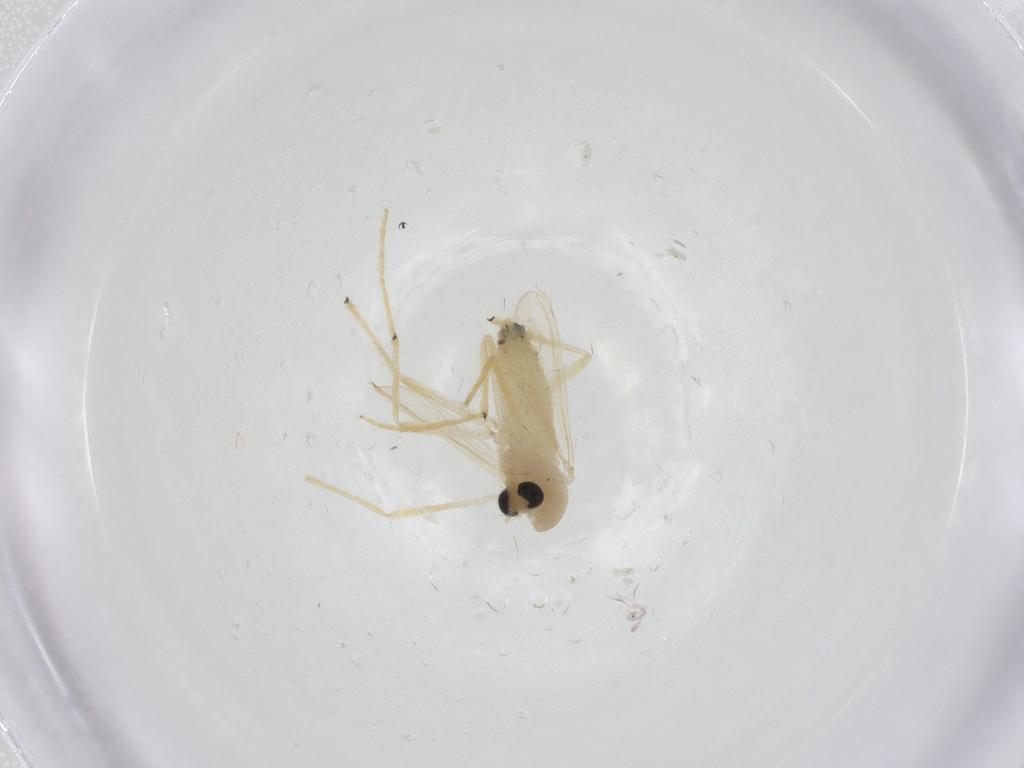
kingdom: Animalia
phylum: Arthropoda
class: Insecta
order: Diptera
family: Chironomidae
